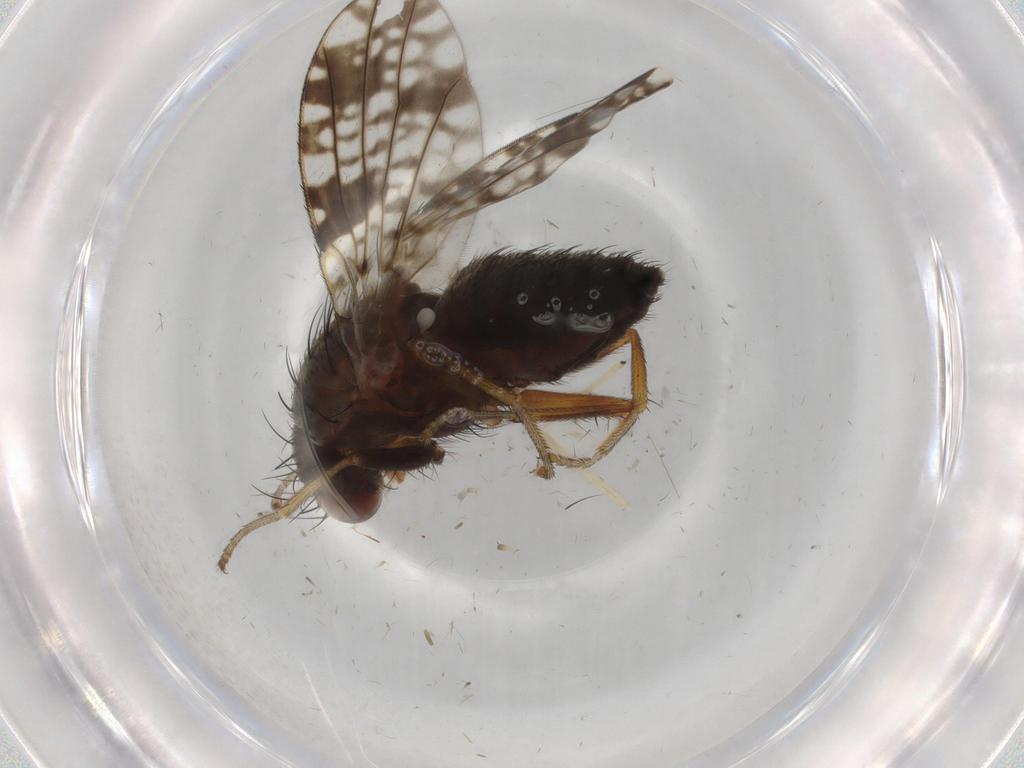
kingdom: Animalia
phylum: Arthropoda
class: Insecta
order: Diptera
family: Tephritidae
